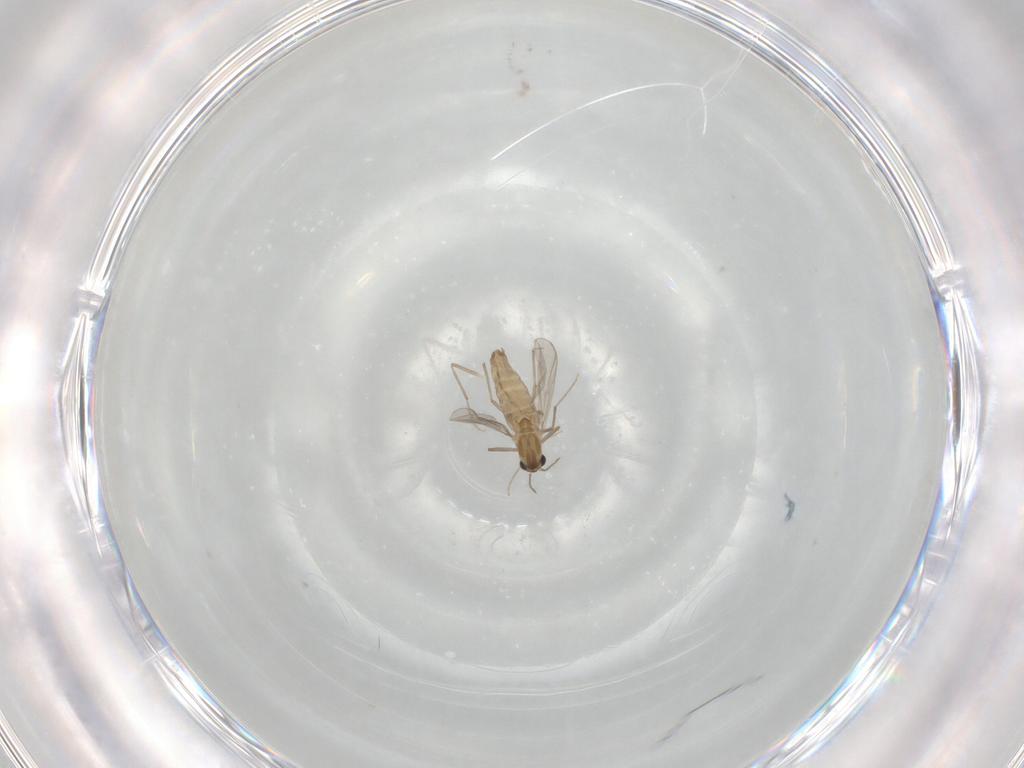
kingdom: Animalia
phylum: Arthropoda
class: Insecta
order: Diptera
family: Chironomidae
